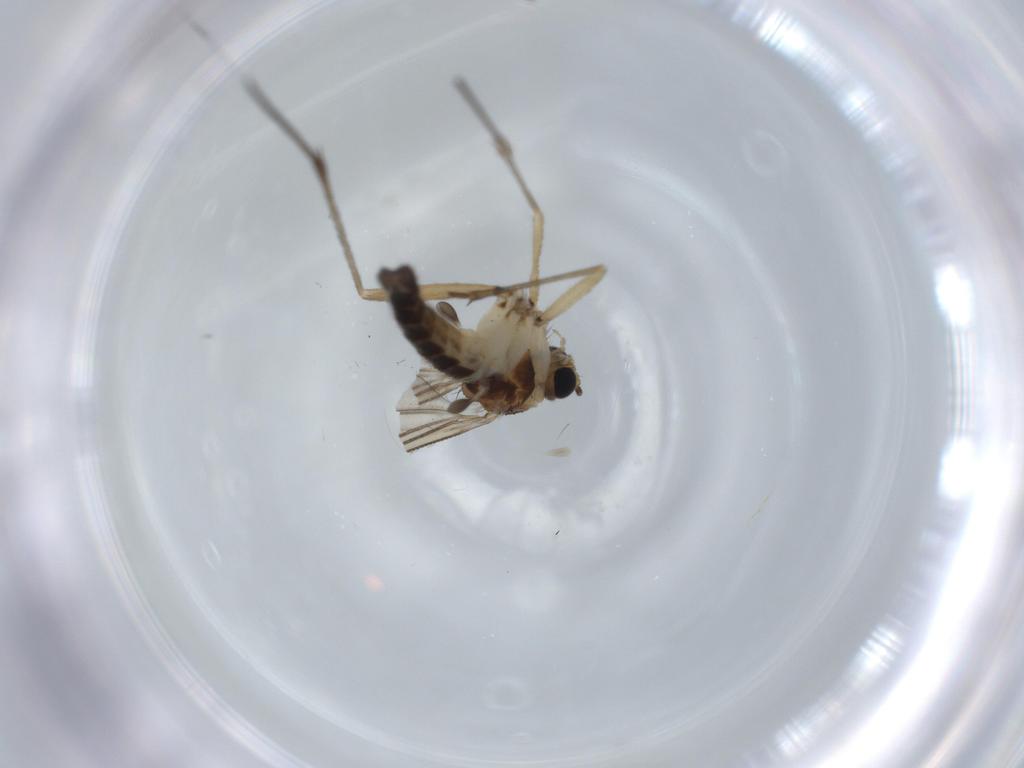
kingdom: Animalia
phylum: Arthropoda
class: Insecta
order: Diptera
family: Sciaridae
